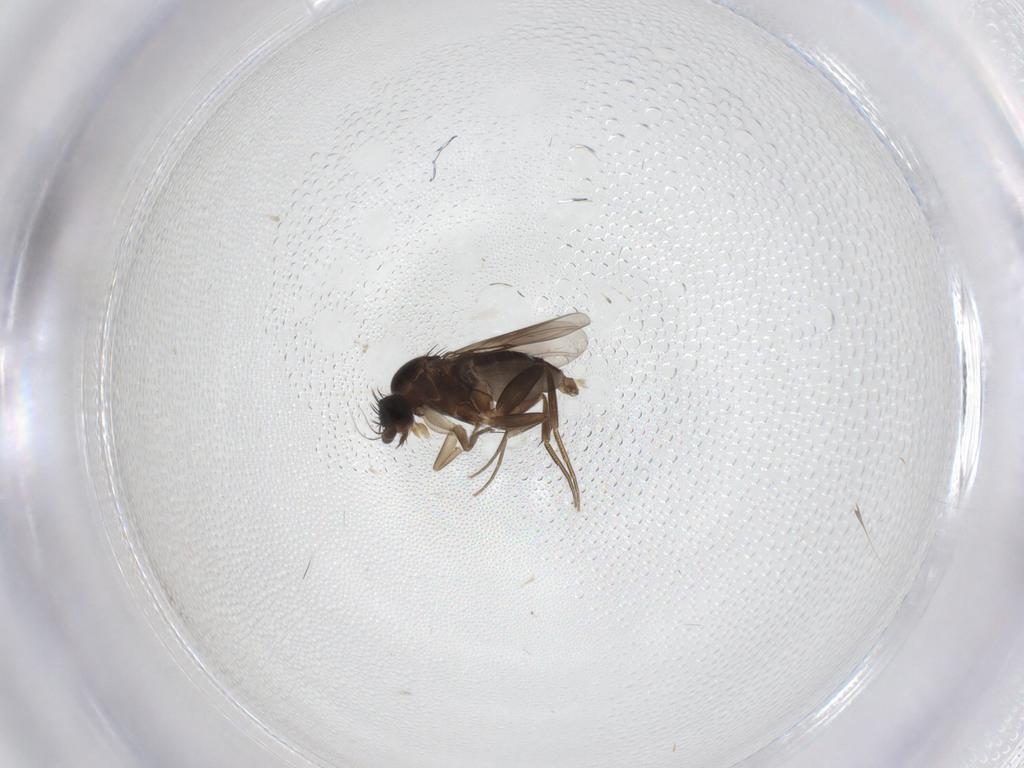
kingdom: Animalia
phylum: Arthropoda
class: Insecta
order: Diptera
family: Phoridae
